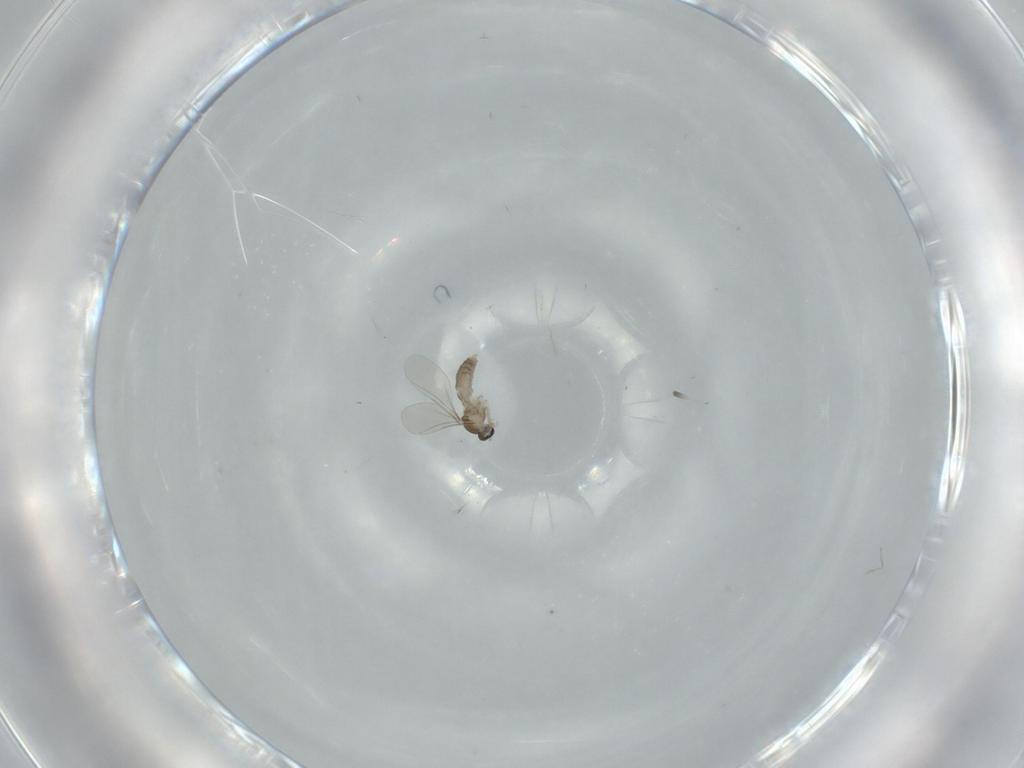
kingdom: Animalia
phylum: Arthropoda
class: Insecta
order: Diptera
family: Cecidomyiidae
